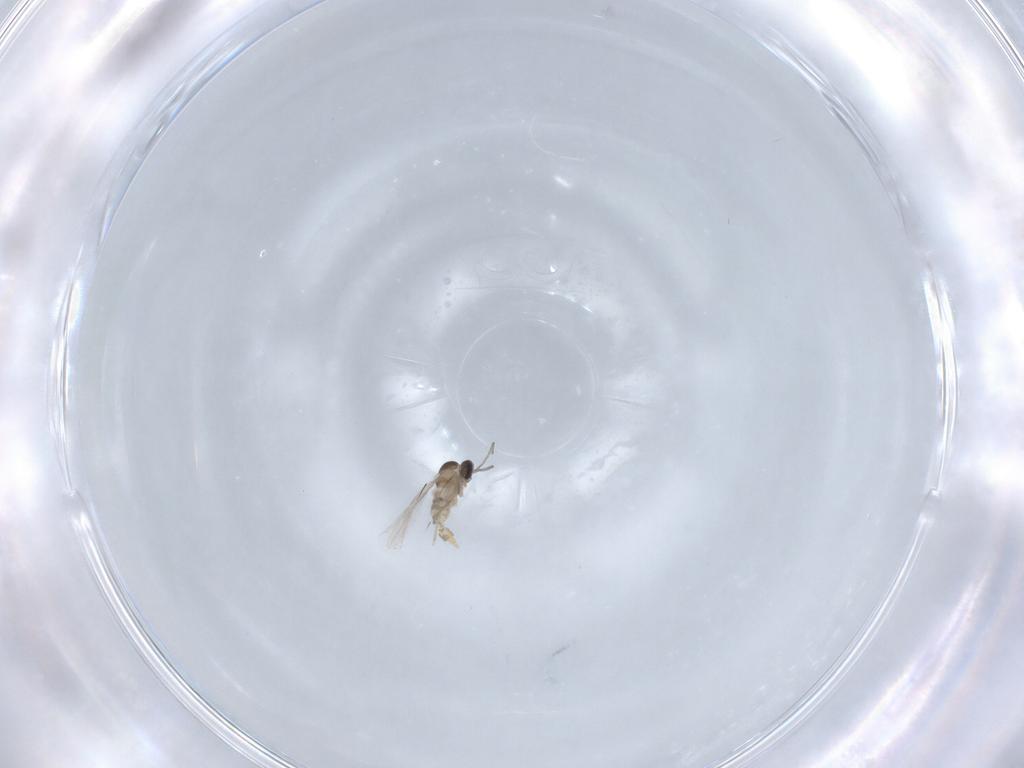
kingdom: Animalia
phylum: Arthropoda
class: Insecta
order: Diptera
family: Cecidomyiidae
